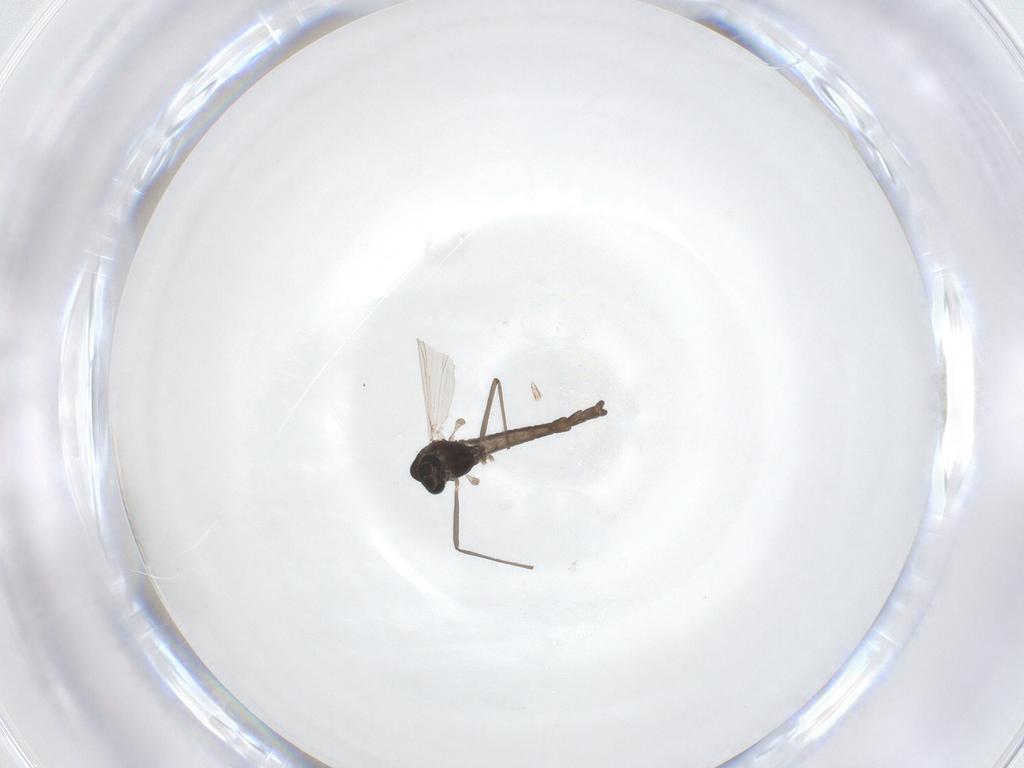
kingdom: Animalia
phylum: Arthropoda
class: Insecta
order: Diptera
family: Chironomidae
